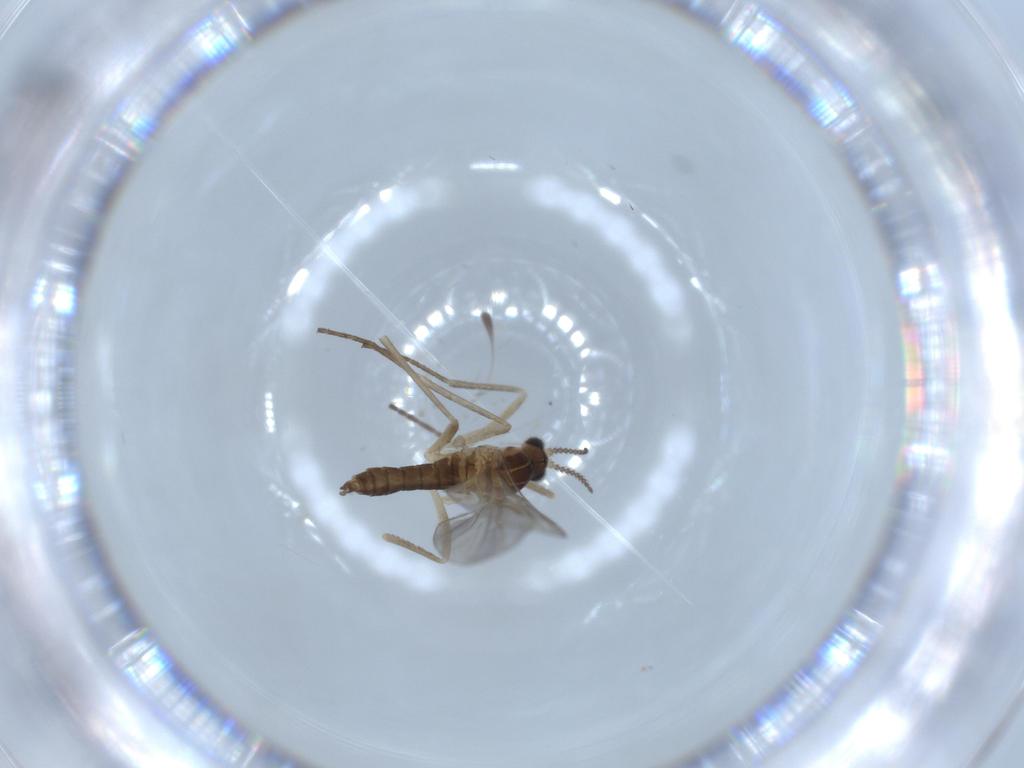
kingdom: Animalia
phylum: Arthropoda
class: Insecta
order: Diptera
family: Cecidomyiidae
